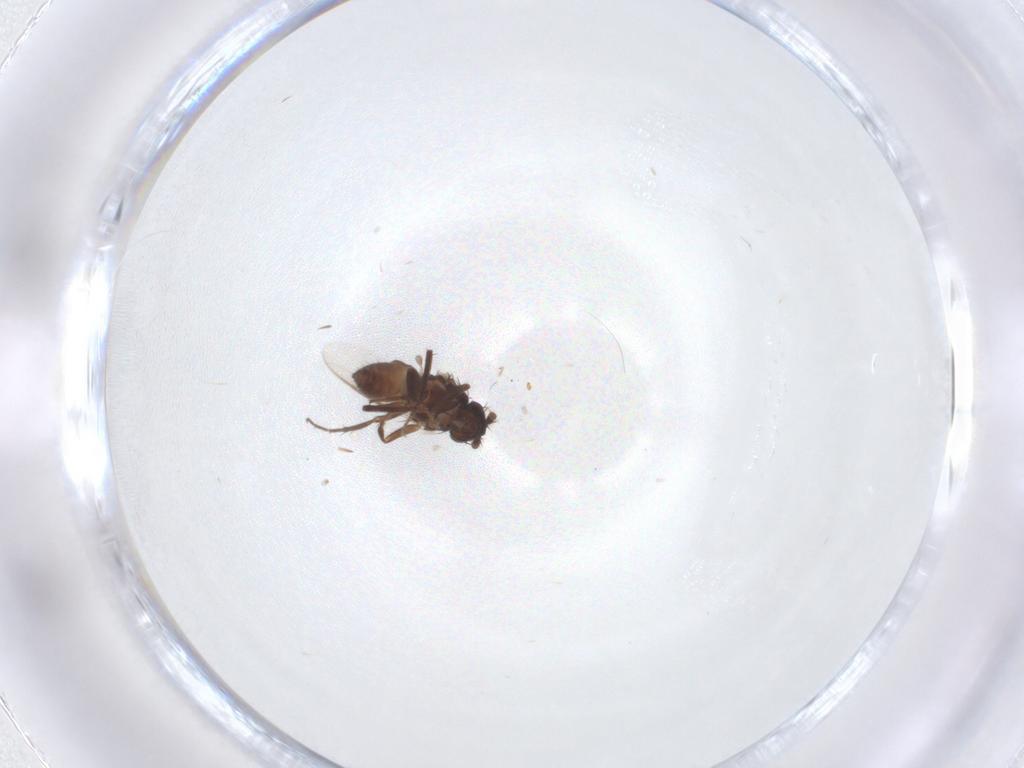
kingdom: Animalia
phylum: Arthropoda
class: Insecta
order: Diptera
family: Sphaeroceridae
